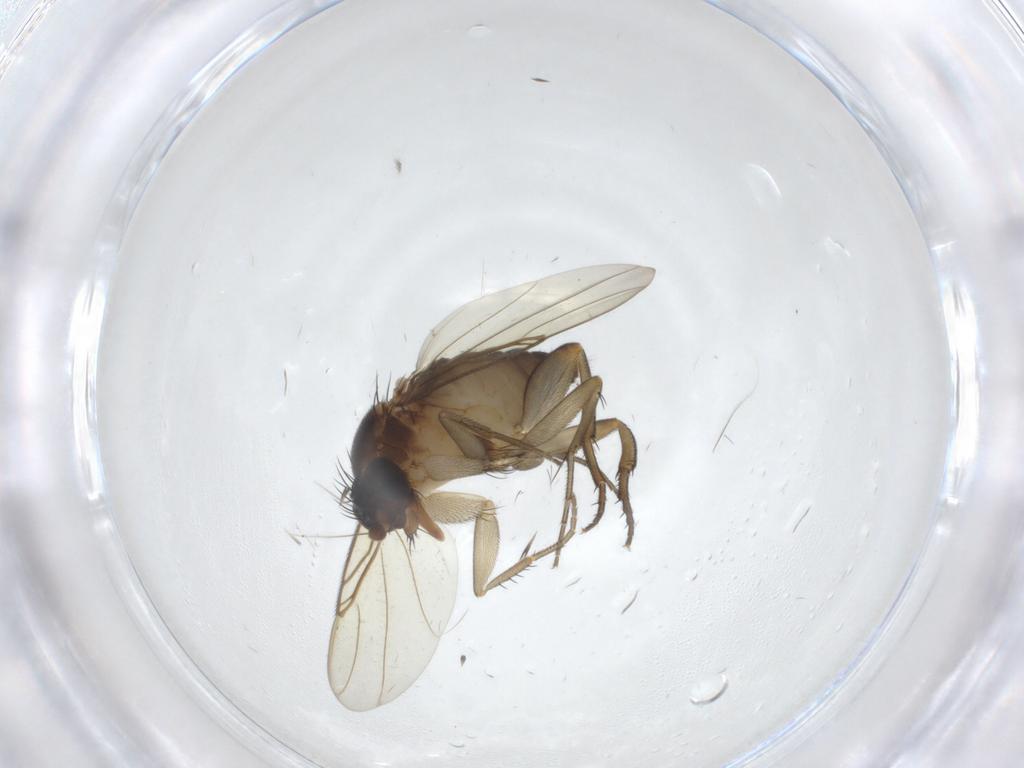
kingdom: Animalia
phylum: Arthropoda
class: Insecta
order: Diptera
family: Phoridae
